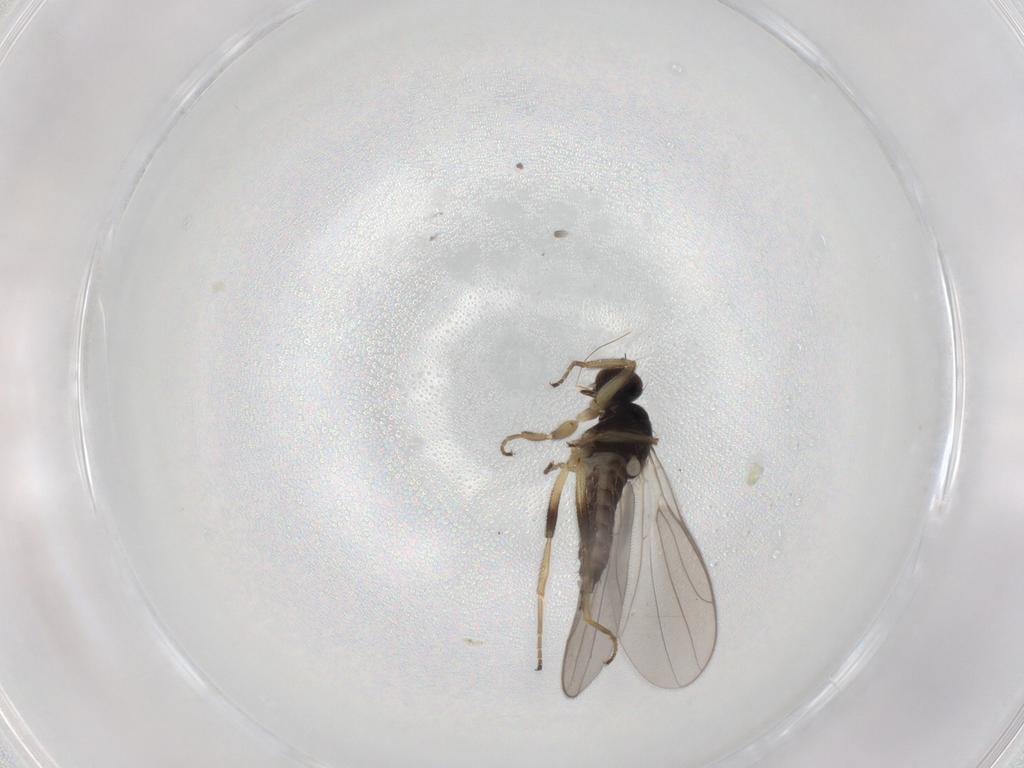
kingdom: Animalia
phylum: Arthropoda
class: Insecta
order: Diptera
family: Hybotidae
